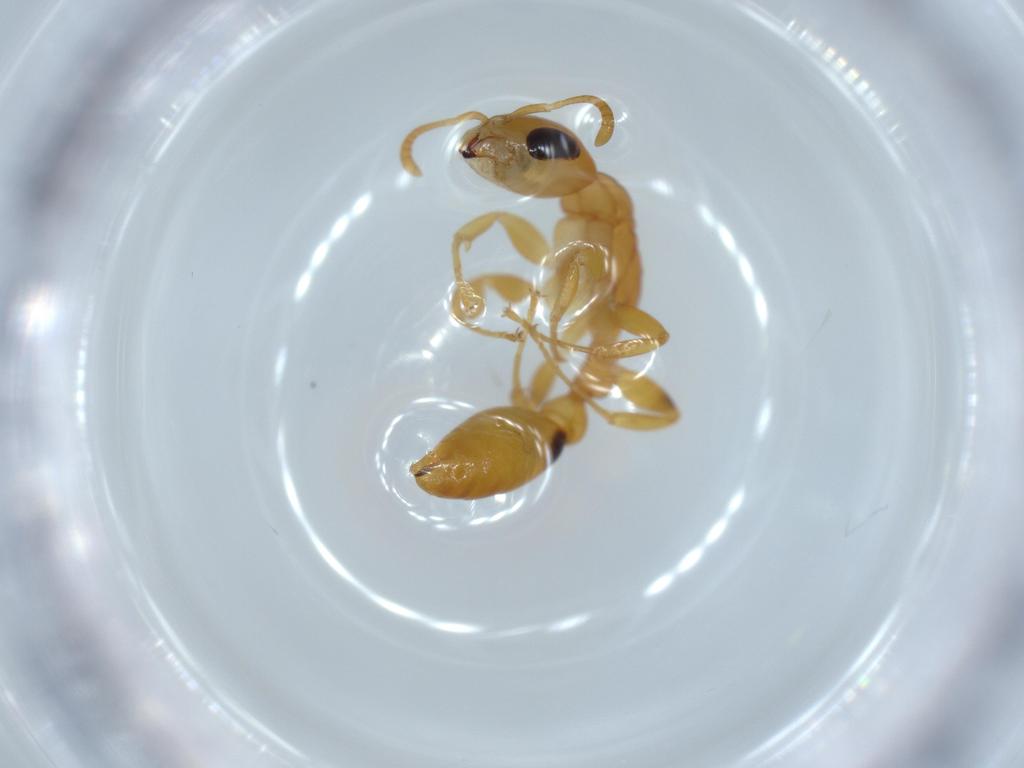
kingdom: Animalia
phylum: Arthropoda
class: Insecta
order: Hymenoptera
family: Formicidae
